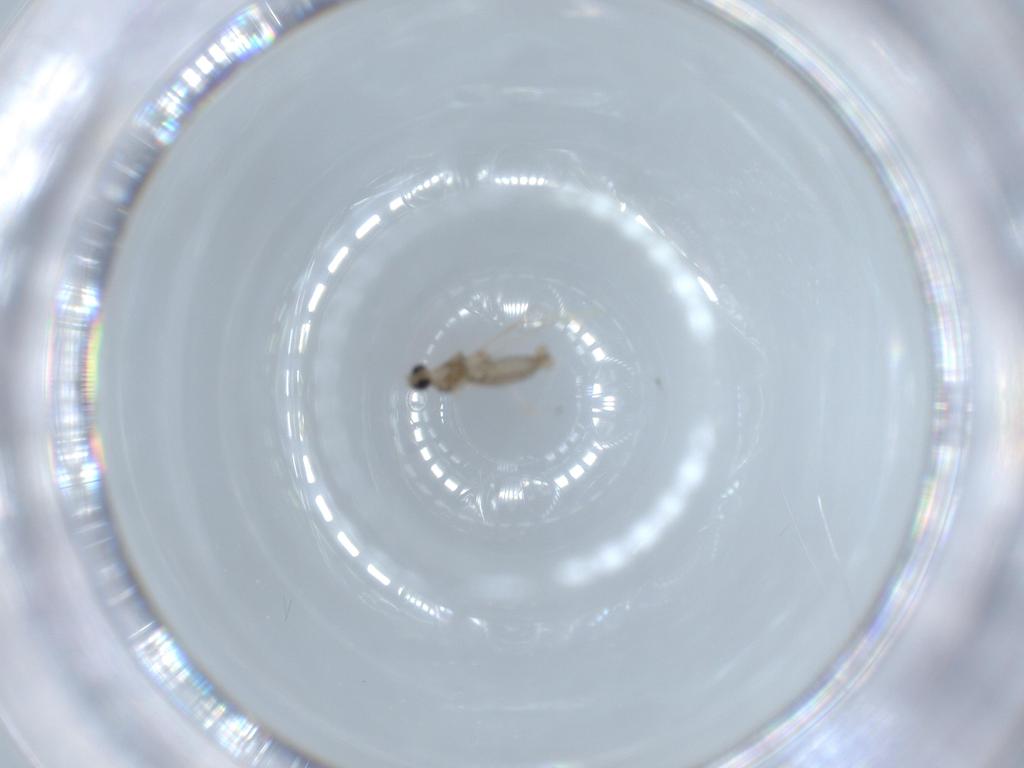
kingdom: Animalia
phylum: Arthropoda
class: Insecta
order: Diptera
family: Cecidomyiidae
